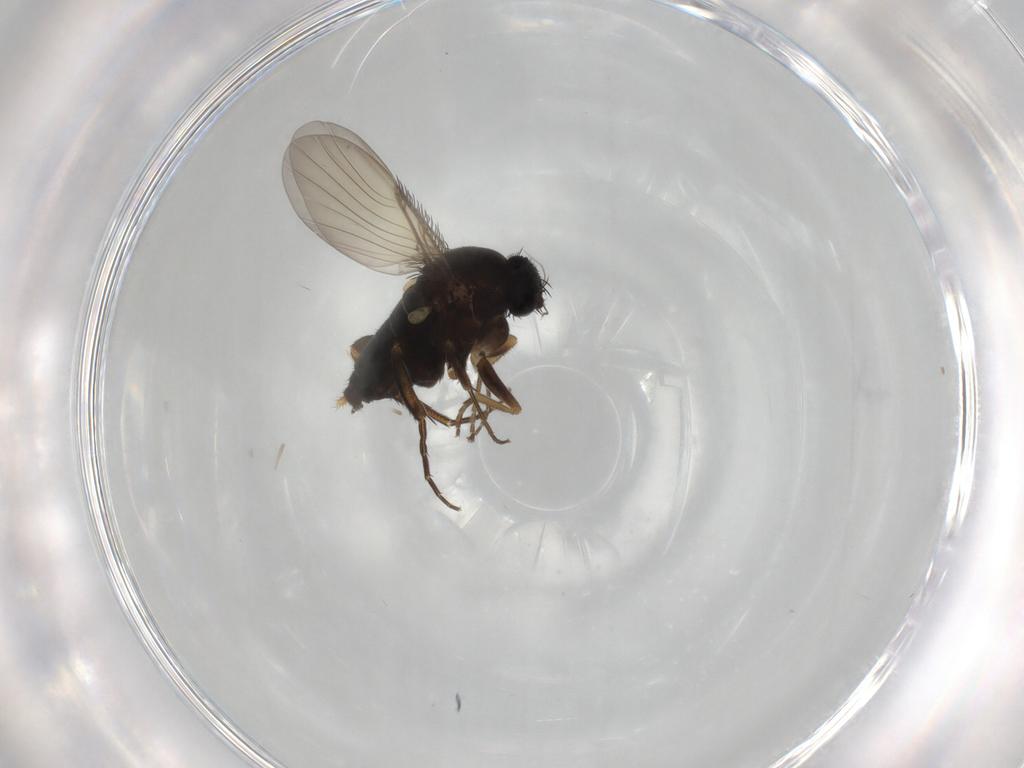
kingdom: Animalia
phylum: Arthropoda
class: Insecta
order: Diptera
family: Phoridae
